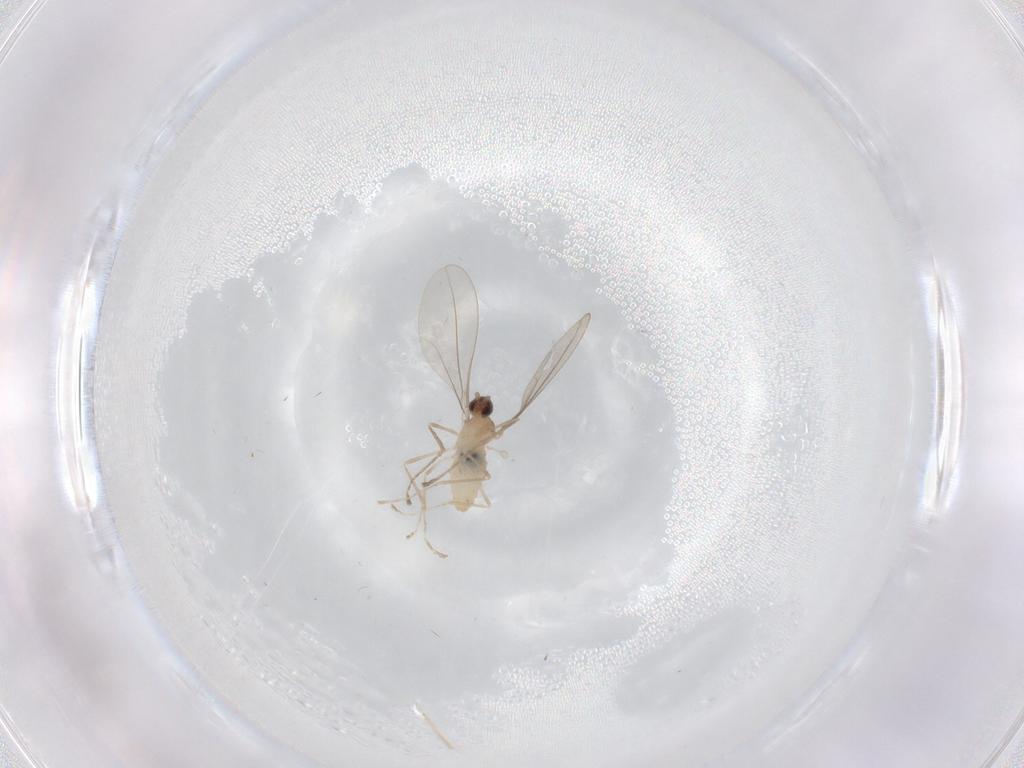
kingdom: Animalia
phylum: Arthropoda
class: Insecta
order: Diptera
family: Cecidomyiidae
